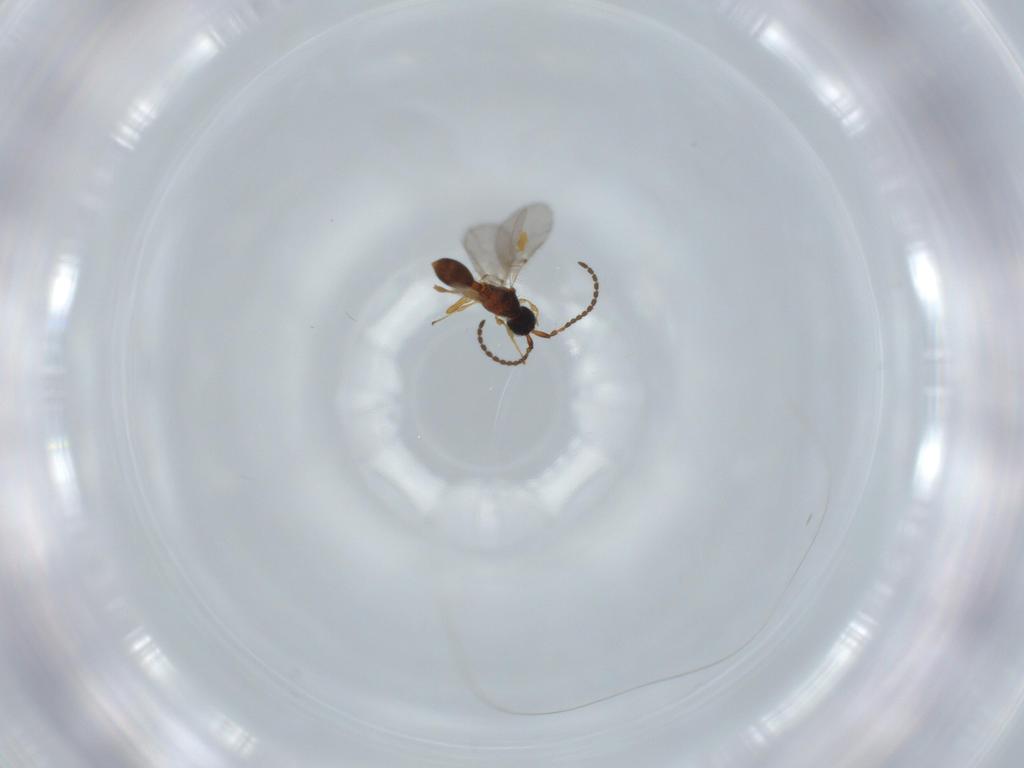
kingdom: Animalia
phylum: Arthropoda
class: Insecta
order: Hymenoptera
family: Diapriidae
